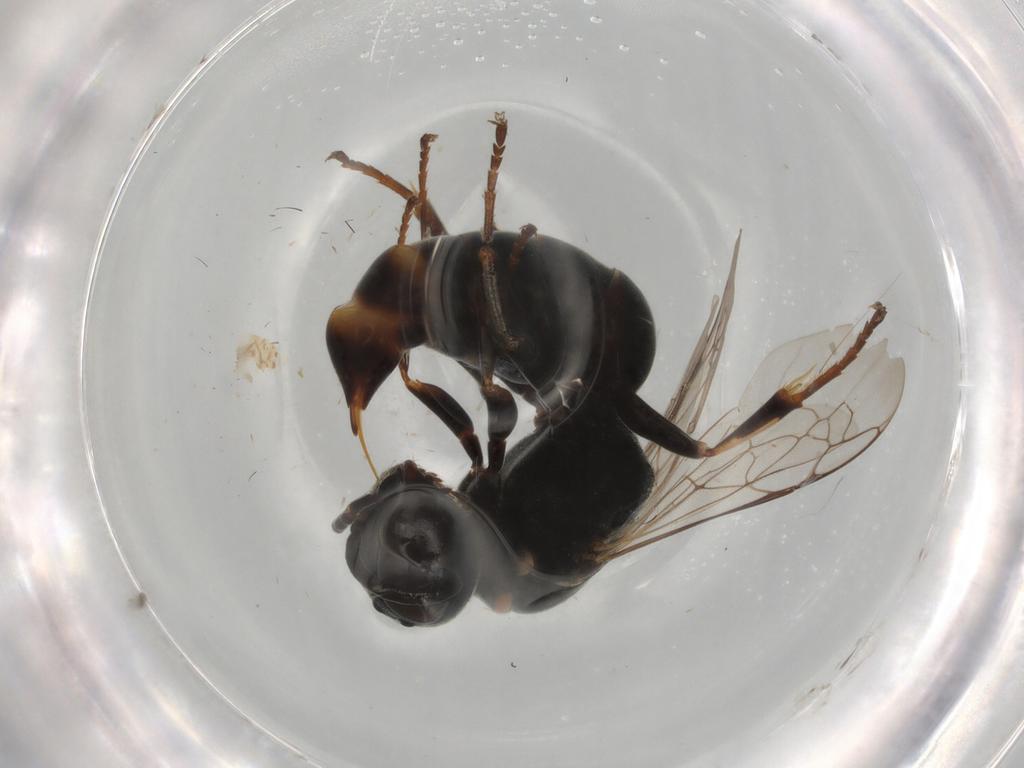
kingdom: Animalia
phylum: Arthropoda
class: Insecta
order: Hymenoptera
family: Crabronidae
